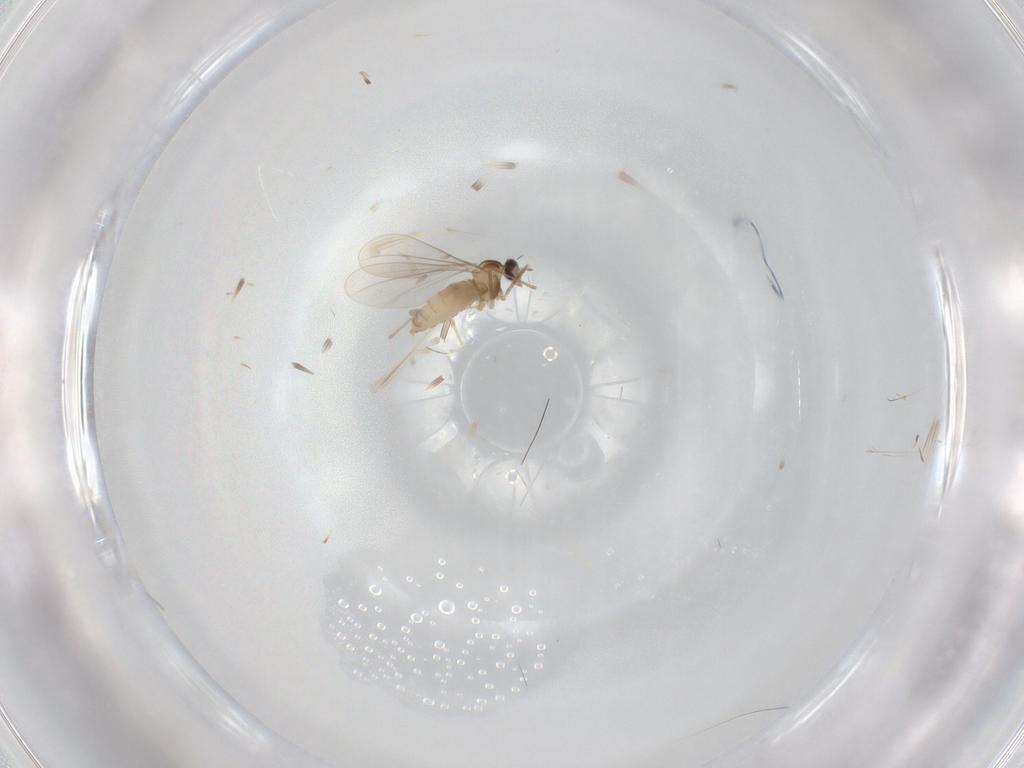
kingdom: Animalia
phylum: Arthropoda
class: Insecta
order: Diptera
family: Cecidomyiidae
